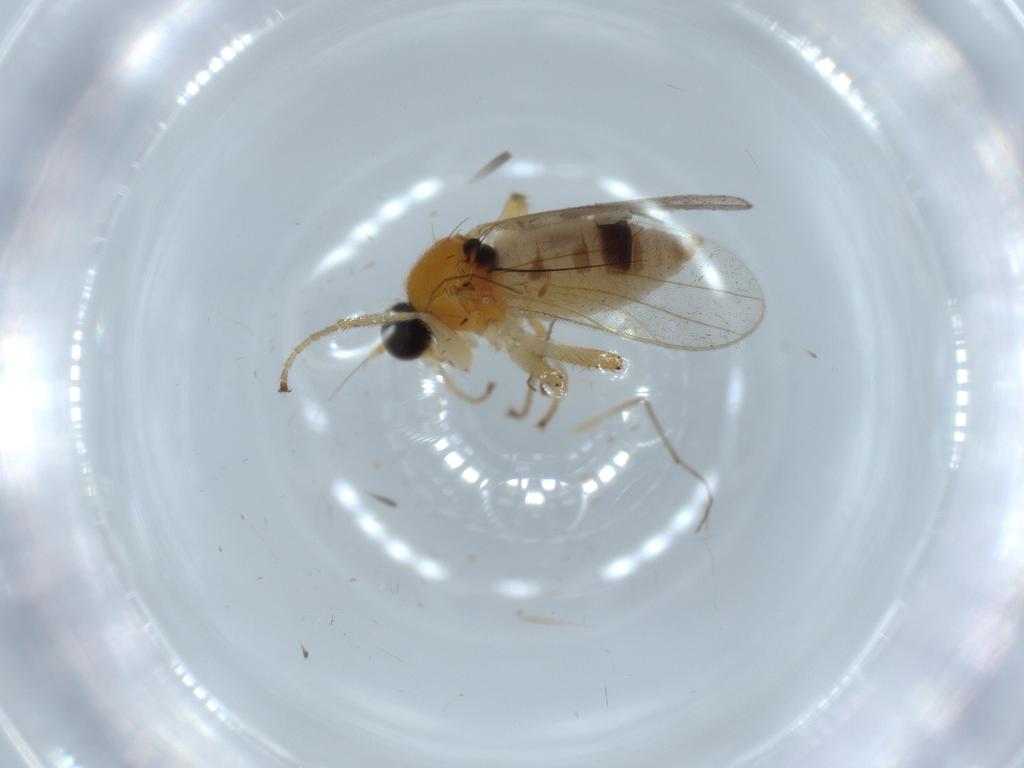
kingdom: Animalia
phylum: Arthropoda
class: Insecta
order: Diptera
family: Hybotidae
